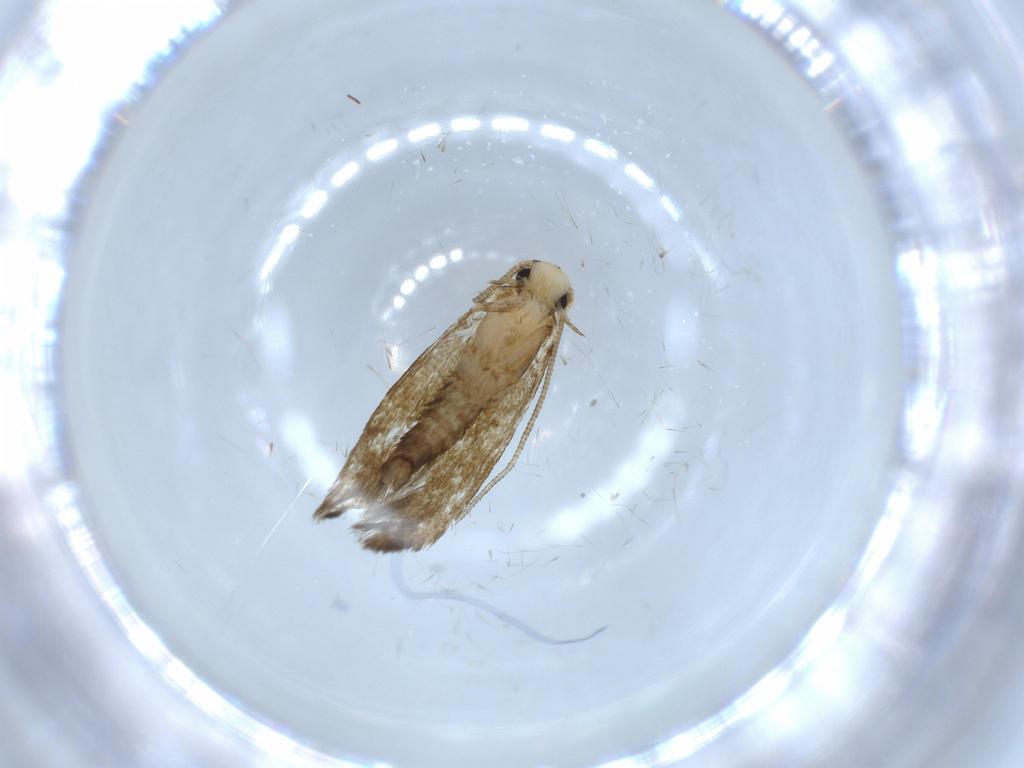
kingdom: Animalia
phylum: Arthropoda
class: Insecta
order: Lepidoptera
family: Tineidae
